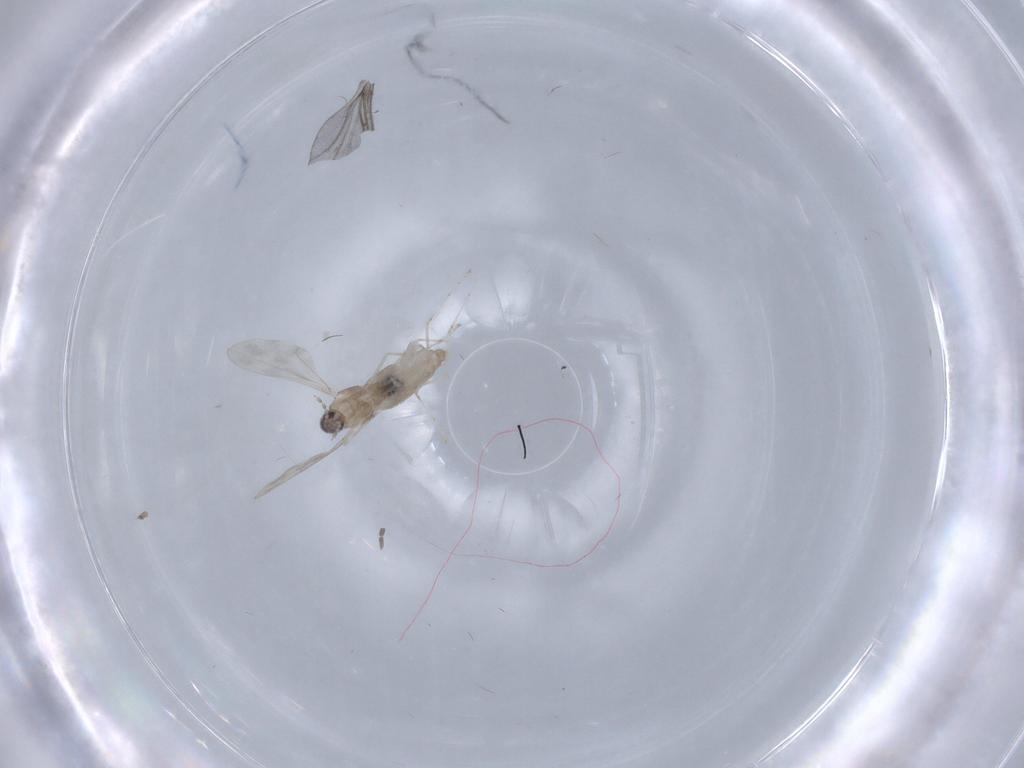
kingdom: Animalia
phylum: Arthropoda
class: Insecta
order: Diptera
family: Cecidomyiidae
